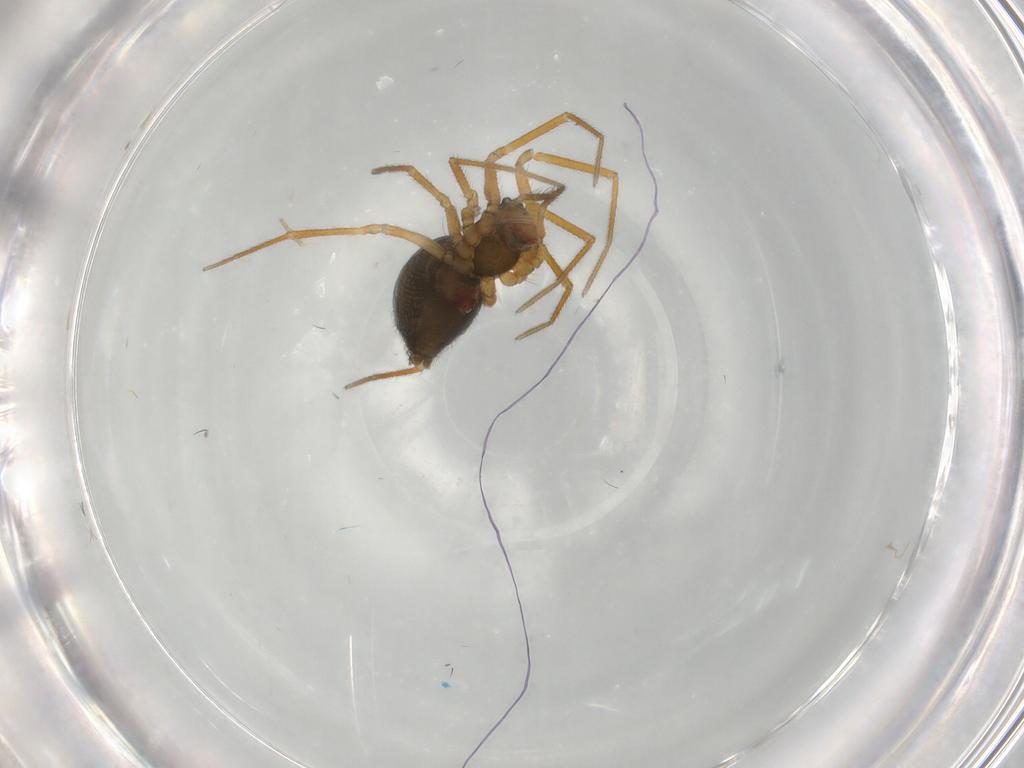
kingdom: Animalia
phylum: Arthropoda
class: Arachnida
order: Araneae
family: Linyphiidae
